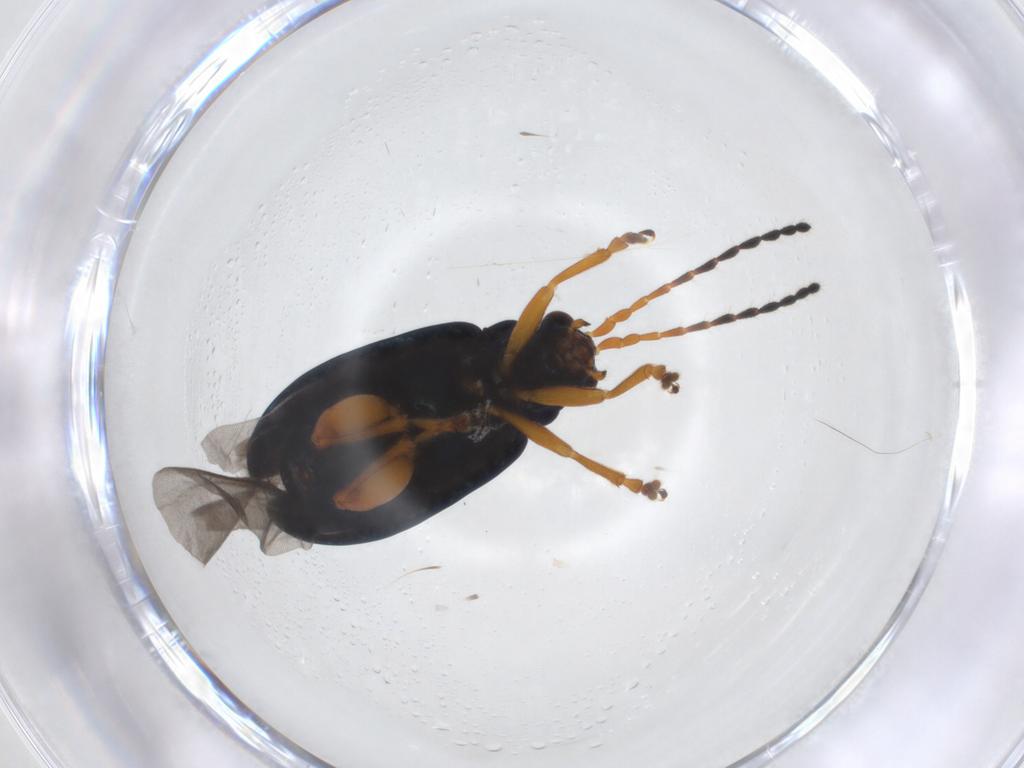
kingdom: Animalia
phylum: Arthropoda
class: Insecta
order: Coleoptera
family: Chrysomelidae
